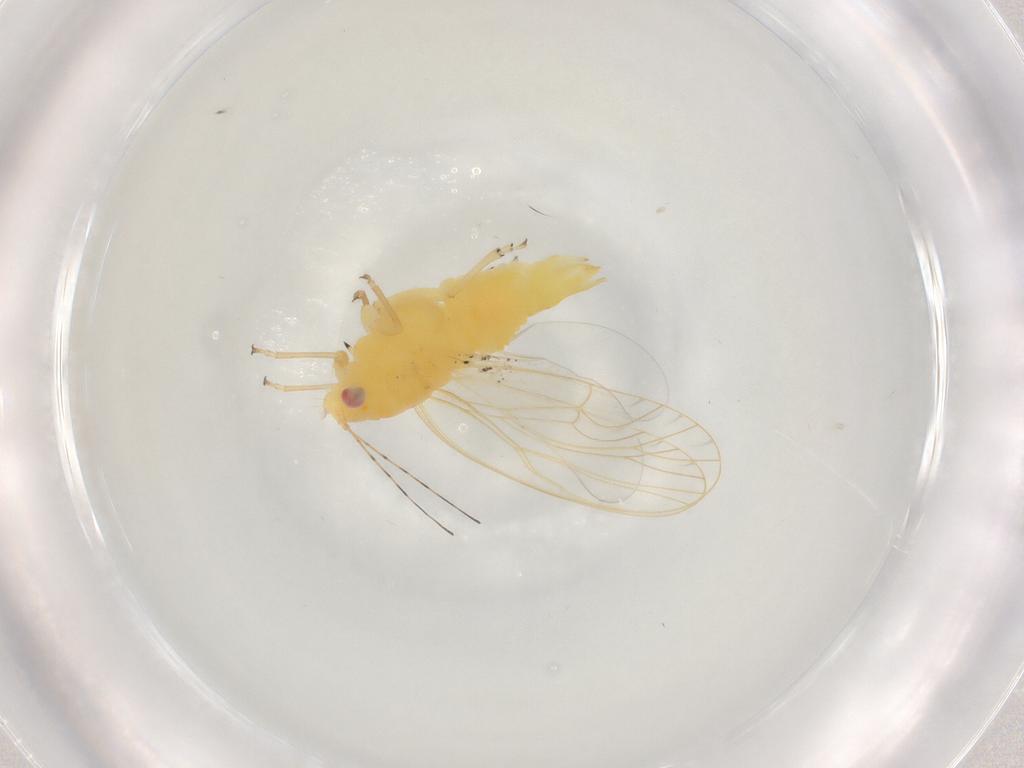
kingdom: Animalia
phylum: Arthropoda
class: Insecta
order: Hemiptera
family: Psyllidae
